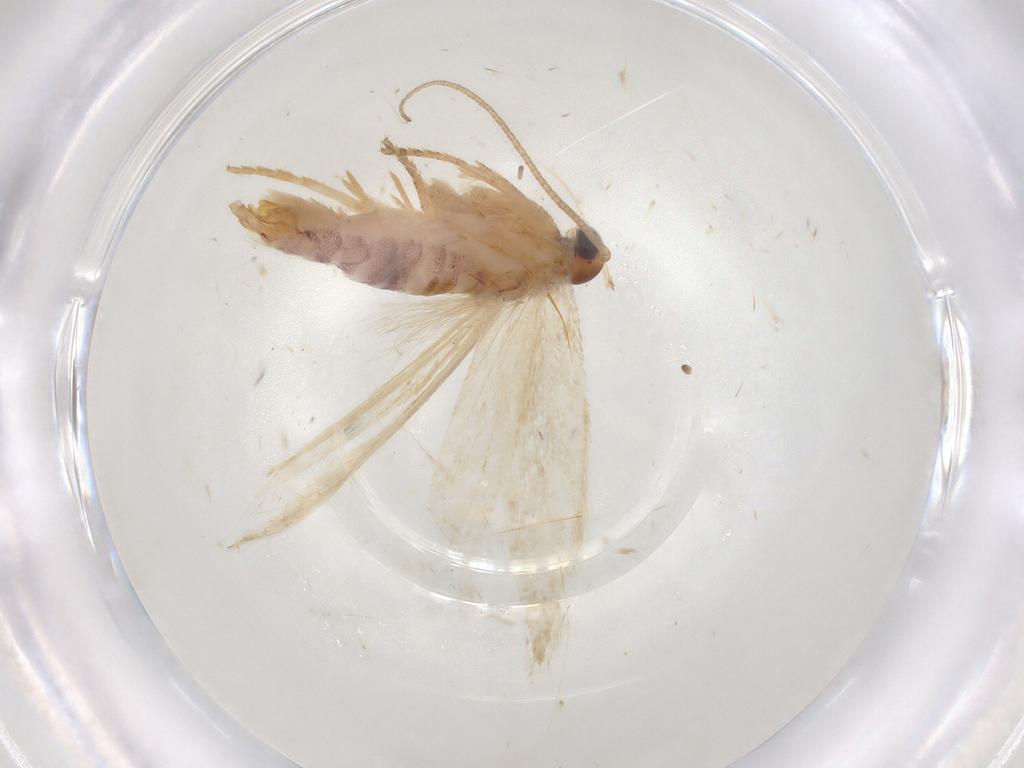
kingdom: Animalia
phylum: Arthropoda
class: Insecta
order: Lepidoptera
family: Gelechiidae
